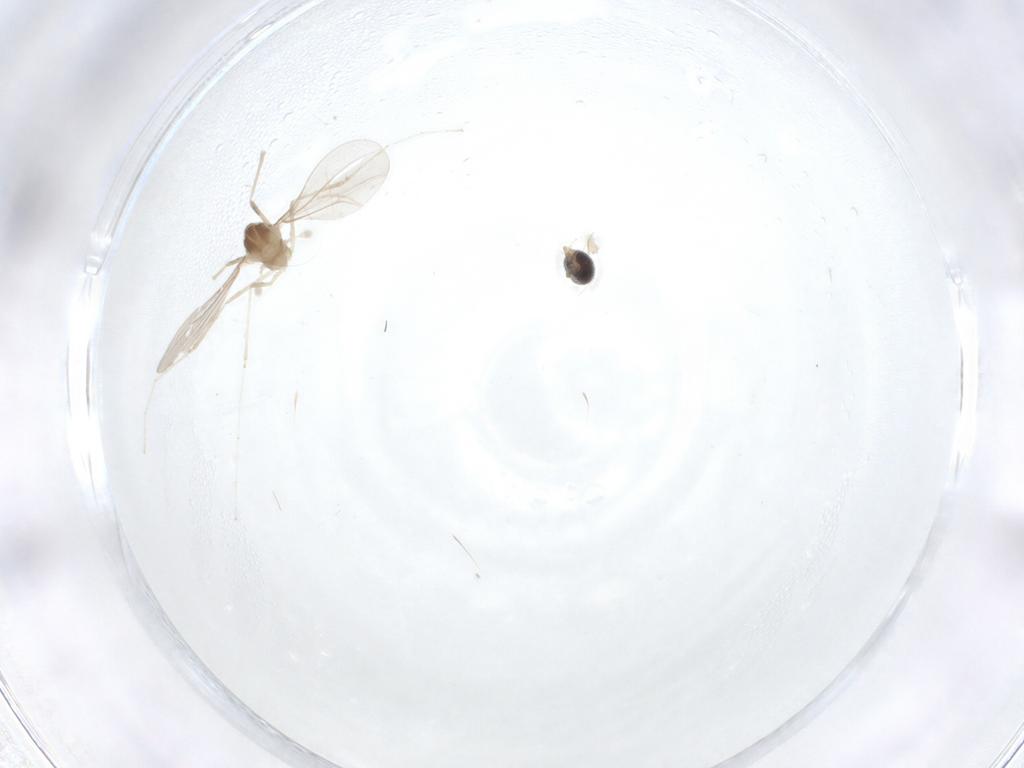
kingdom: Animalia
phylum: Arthropoda
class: Insecta
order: Diptera
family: Cecidomyiidae
